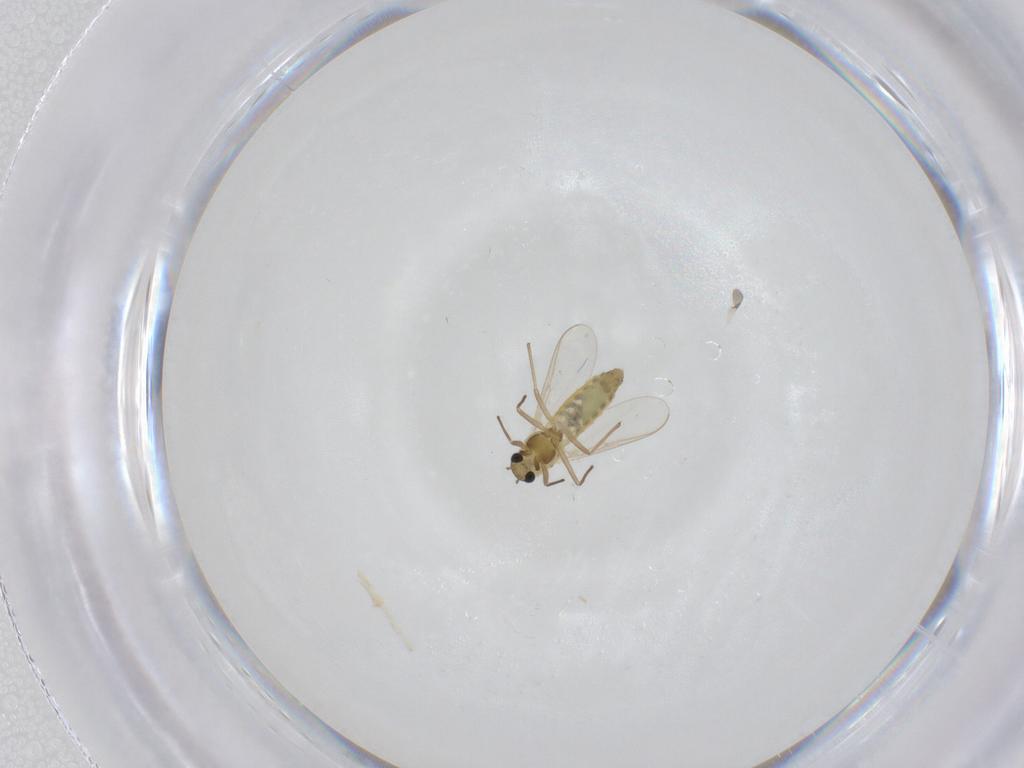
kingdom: Animalia
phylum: Arthropoda
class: Insecta
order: Diptera
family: Chironomidae
